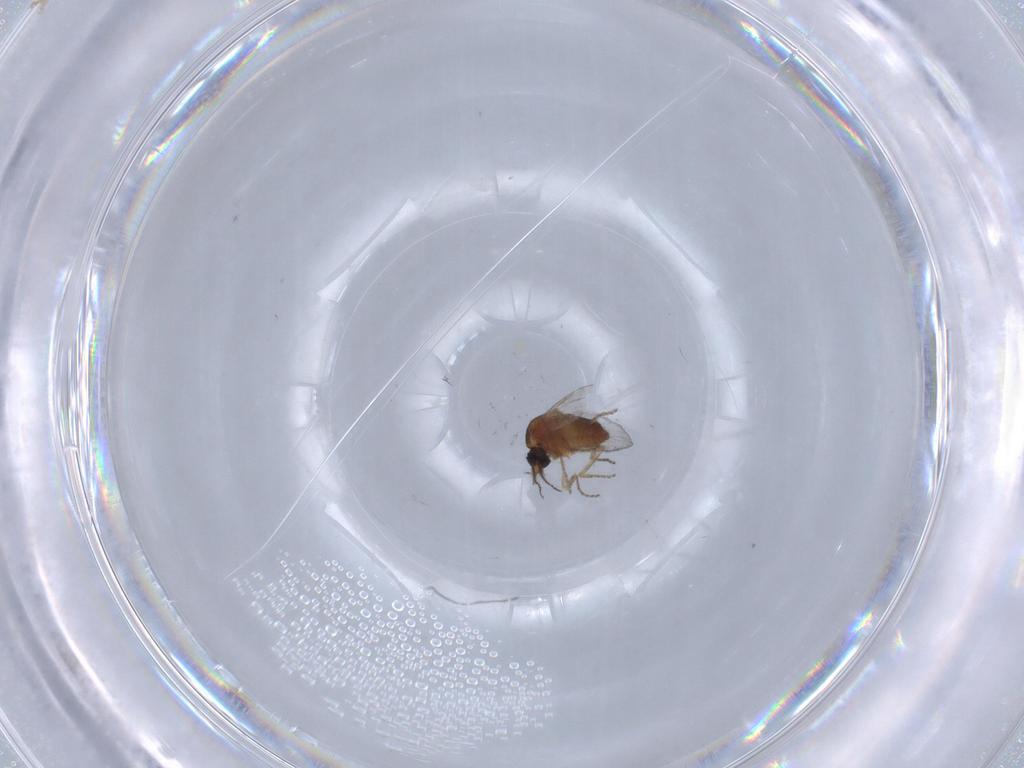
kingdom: Animalia
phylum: Arthropoda
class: Insecta
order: Diptera
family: Ceratopogonidae
